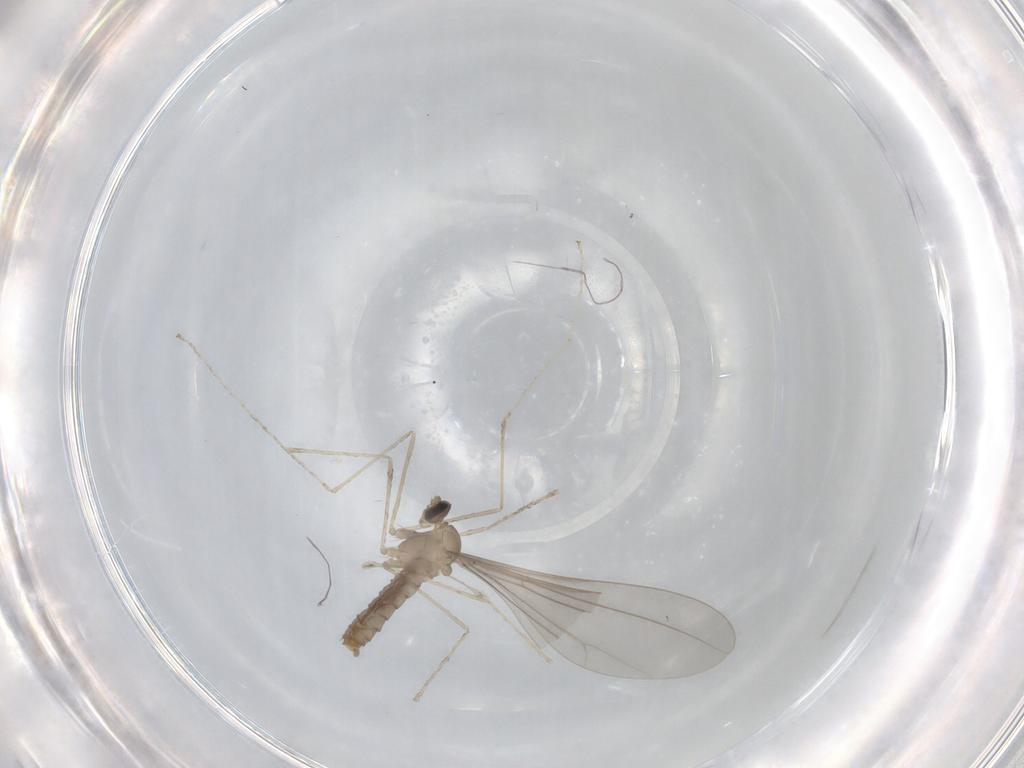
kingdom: Animalia
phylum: Arthropoda
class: Insecta
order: Diptera
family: Cecidomyiidae
